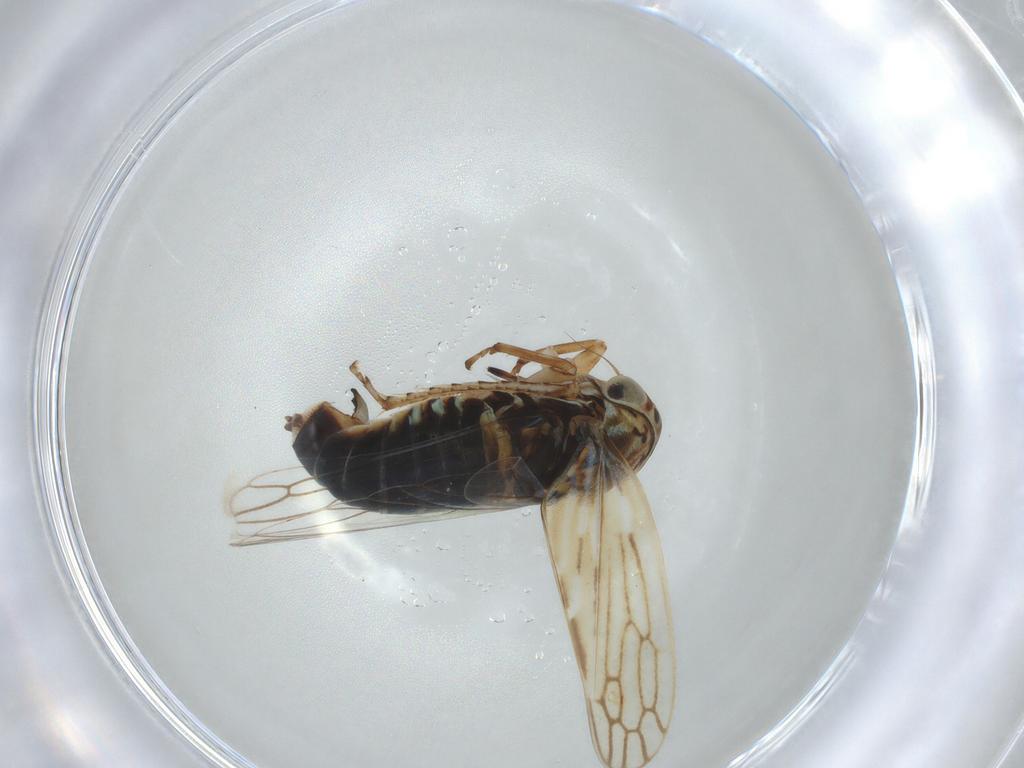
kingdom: Animalia
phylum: Arthropoda
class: Insecta
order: Hemiptera
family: Cicadellidae
